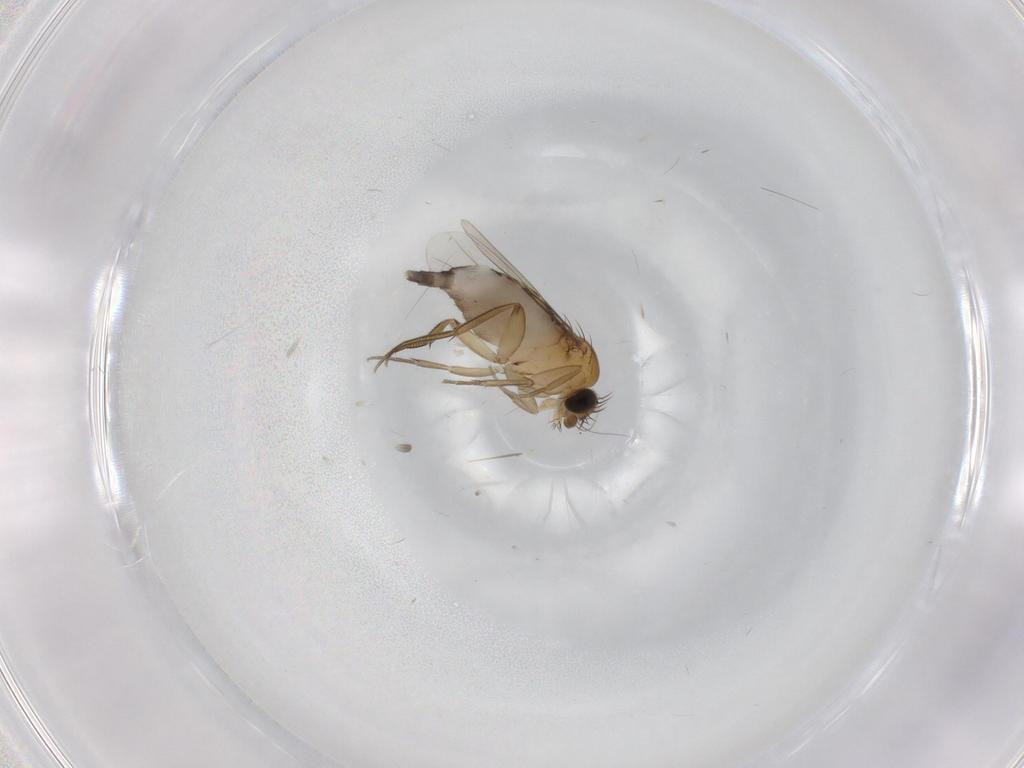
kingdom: Animalia
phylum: Arthropoda
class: Insecta
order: Diptera
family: Phoridae
